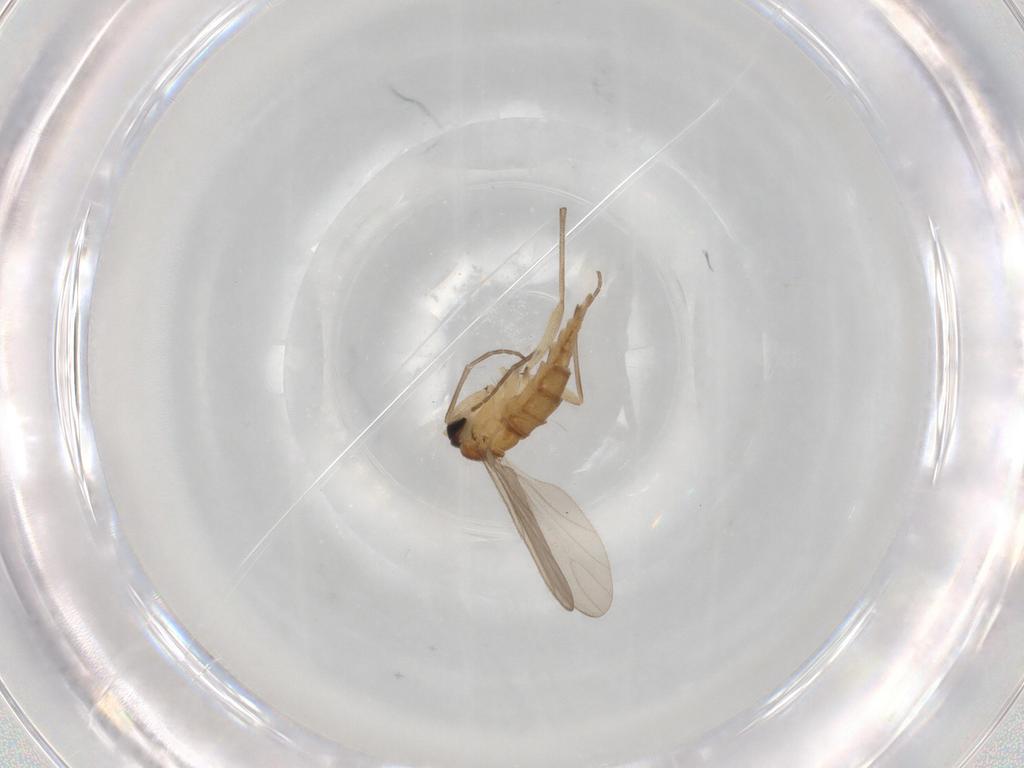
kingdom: Animalia
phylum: Arthropoda
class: Insecta
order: Diptera
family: Sciaridae
